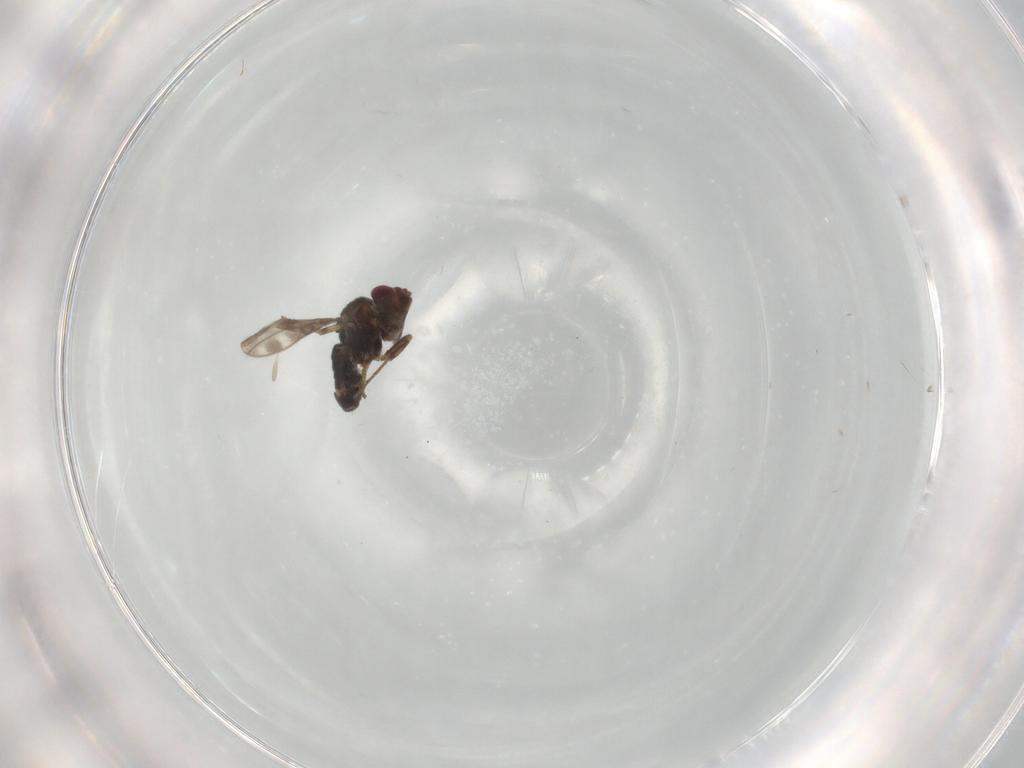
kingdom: Animalia
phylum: Arthropoda
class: Insecta
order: Diptera
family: Sphaeroceridae
